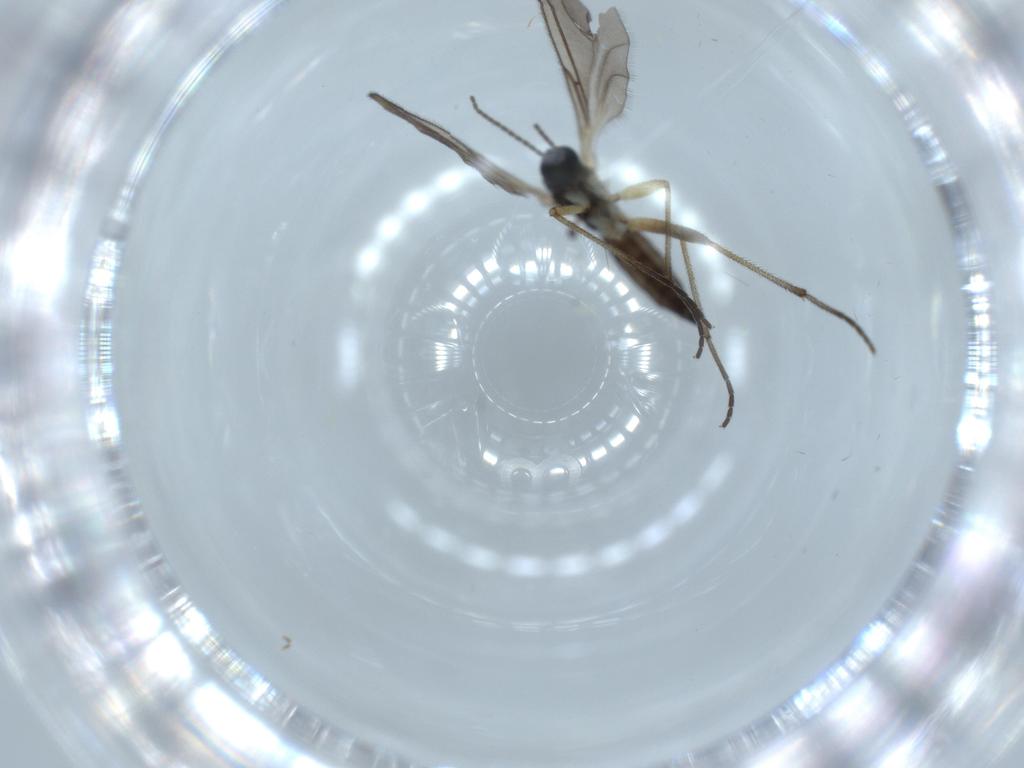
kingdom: Animalia
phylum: Arthropoda
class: Insecta
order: Diptera
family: Sciaridae
